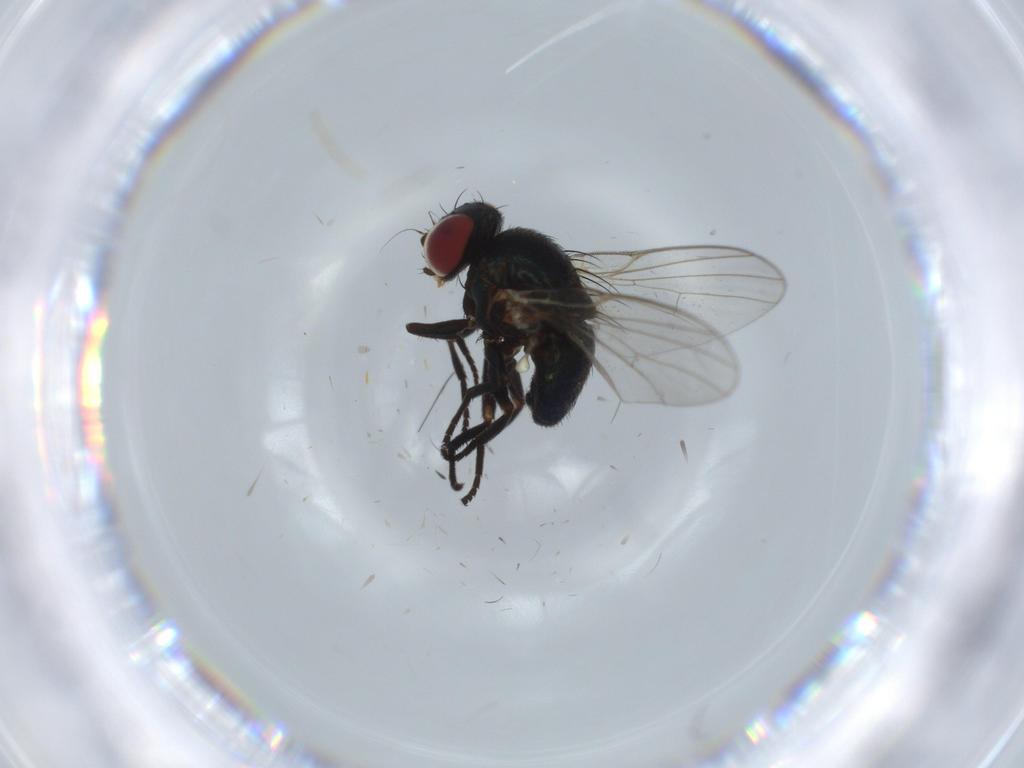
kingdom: Animalia
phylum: Arthropoda
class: Insecta
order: Diptera
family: Agromyzidae
